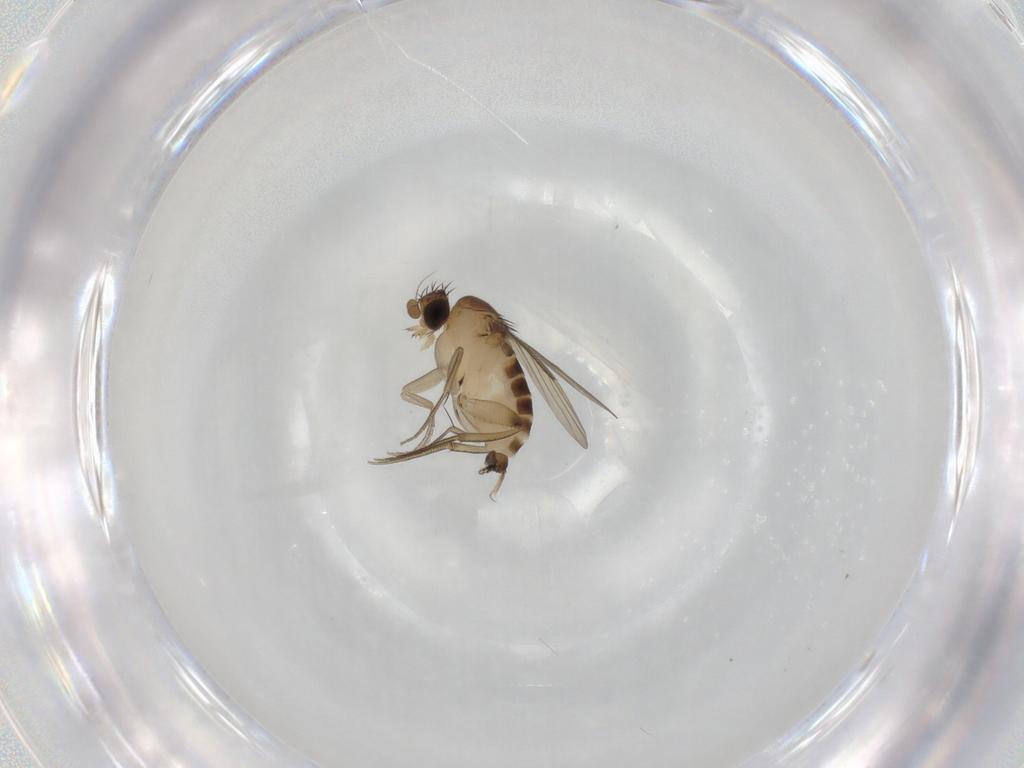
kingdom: Animalia
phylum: Arthropoda
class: Insecta
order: Diptera
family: Phoridae
